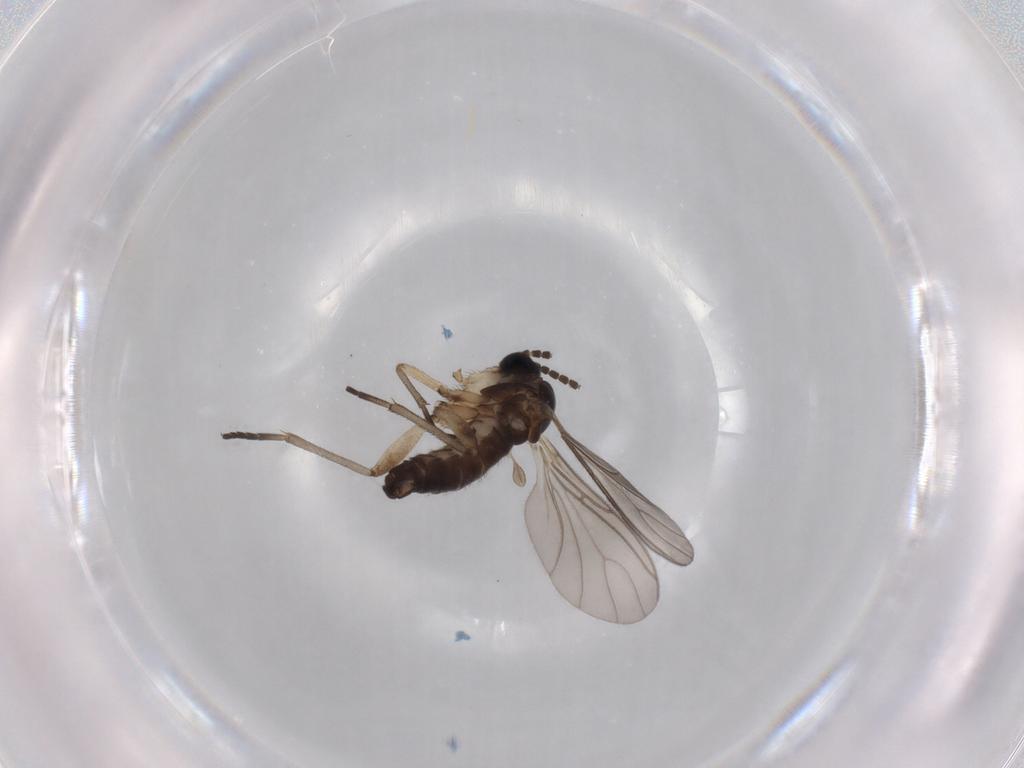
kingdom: Animalia
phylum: Arthropoda
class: Insecta
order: Diptera
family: Sciaridae
